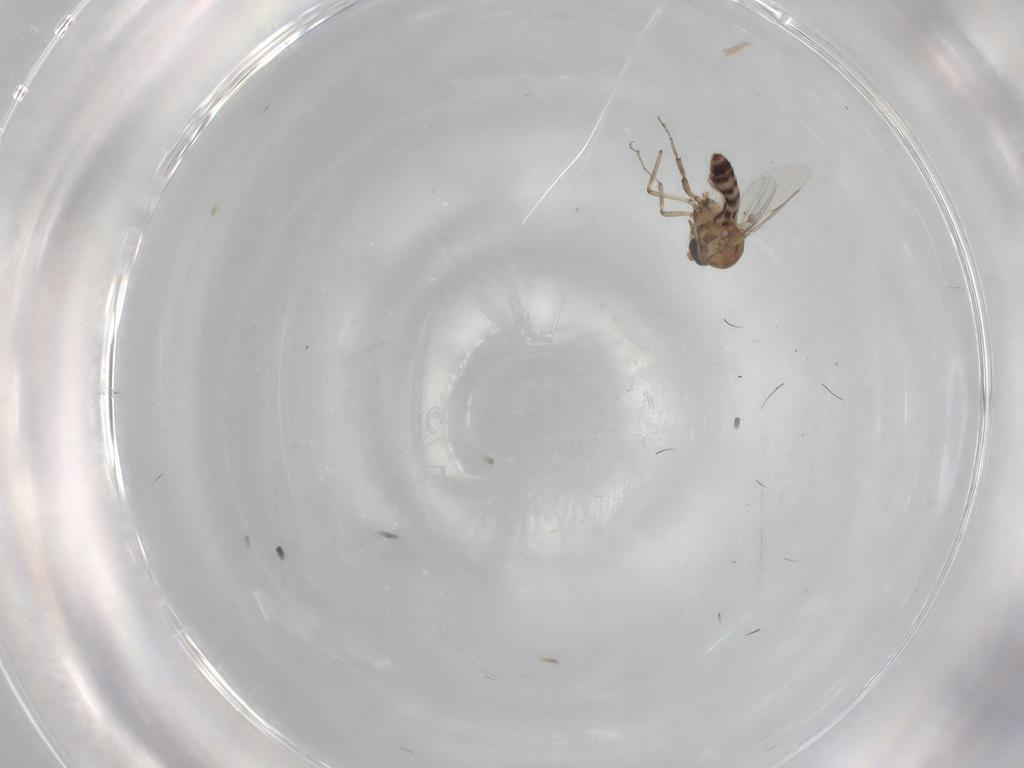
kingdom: Animalia
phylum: Arthropoda
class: Insecta
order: Diptera
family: Ceratopogonidae
